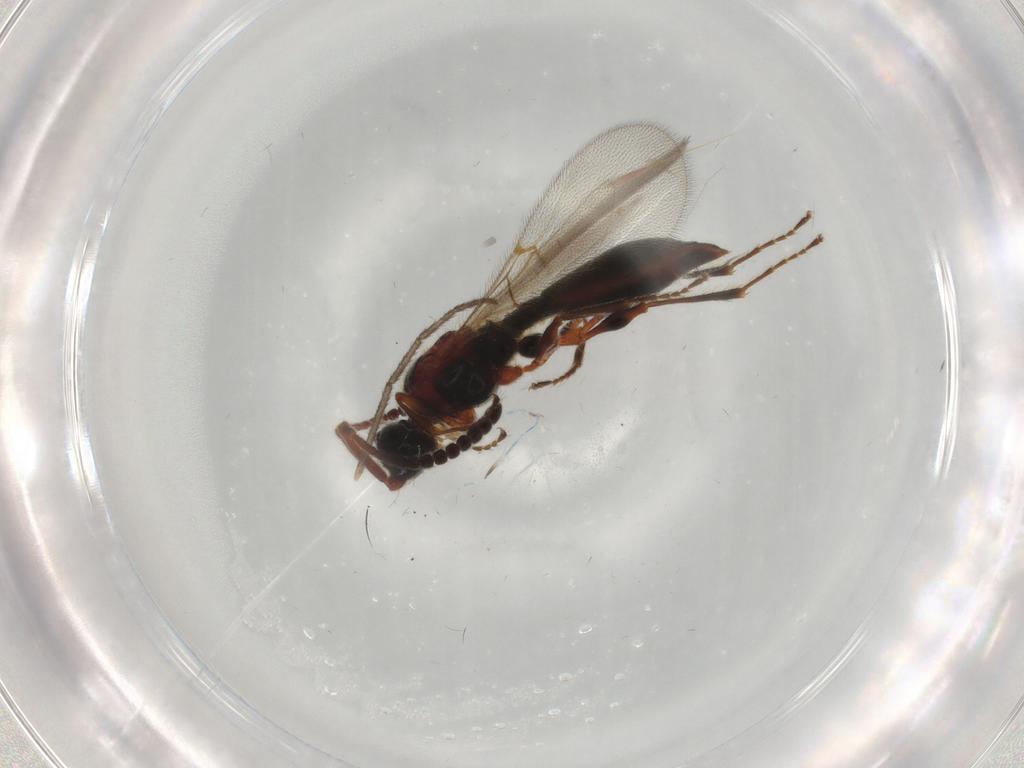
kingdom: Animalia
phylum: Arthropoda
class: Insecta
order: Hymenoptera
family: Diapriidae
